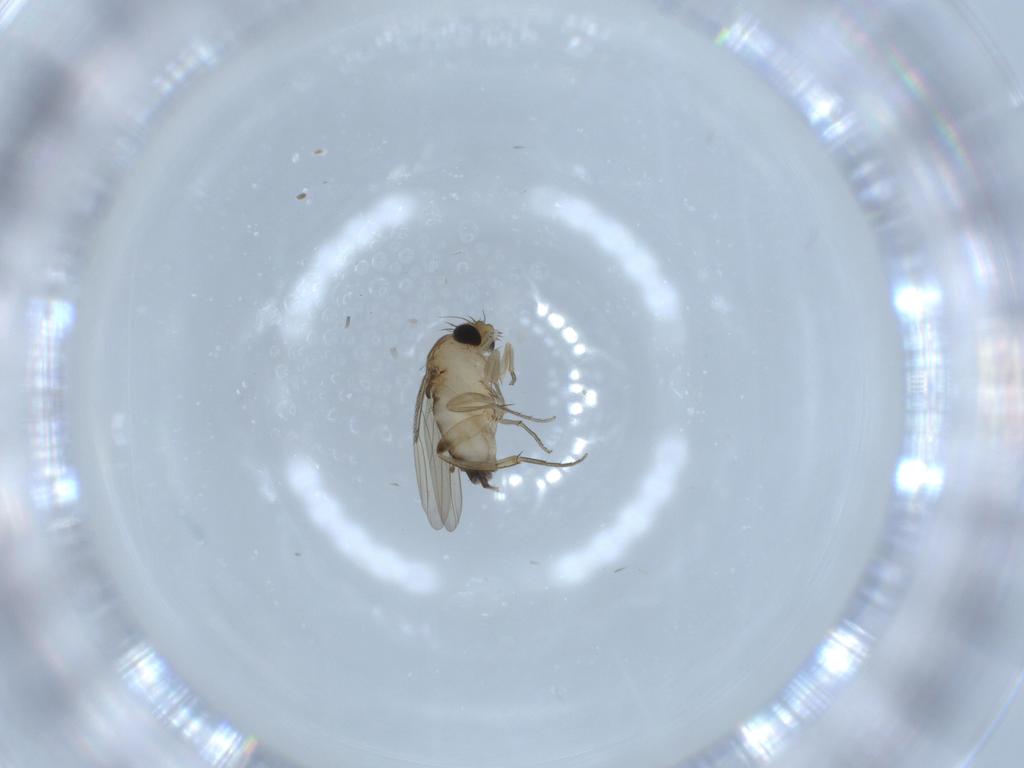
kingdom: Animalia
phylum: Arthropoda
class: Insecta
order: Diptera
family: Phoridae
